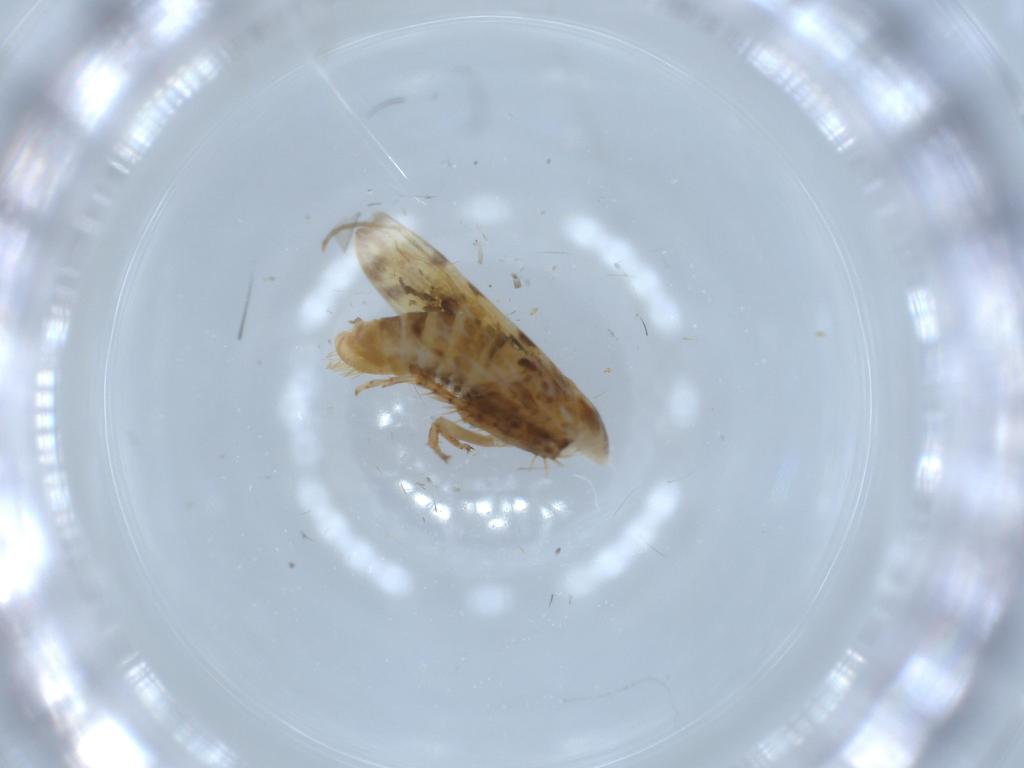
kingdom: Animalia
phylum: Arthropoda
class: Insecta
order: Hemiptera
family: Cicadellidae
